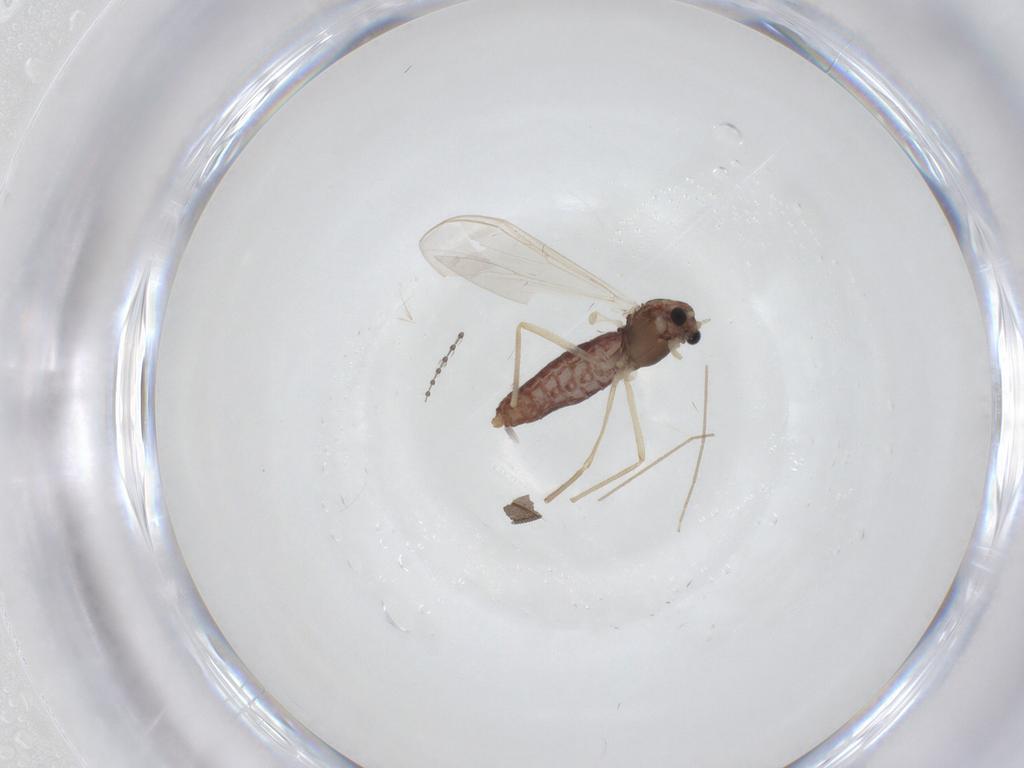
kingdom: Animalia
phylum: Arthropoda
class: Insecta
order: Diptera
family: Chironomidae
